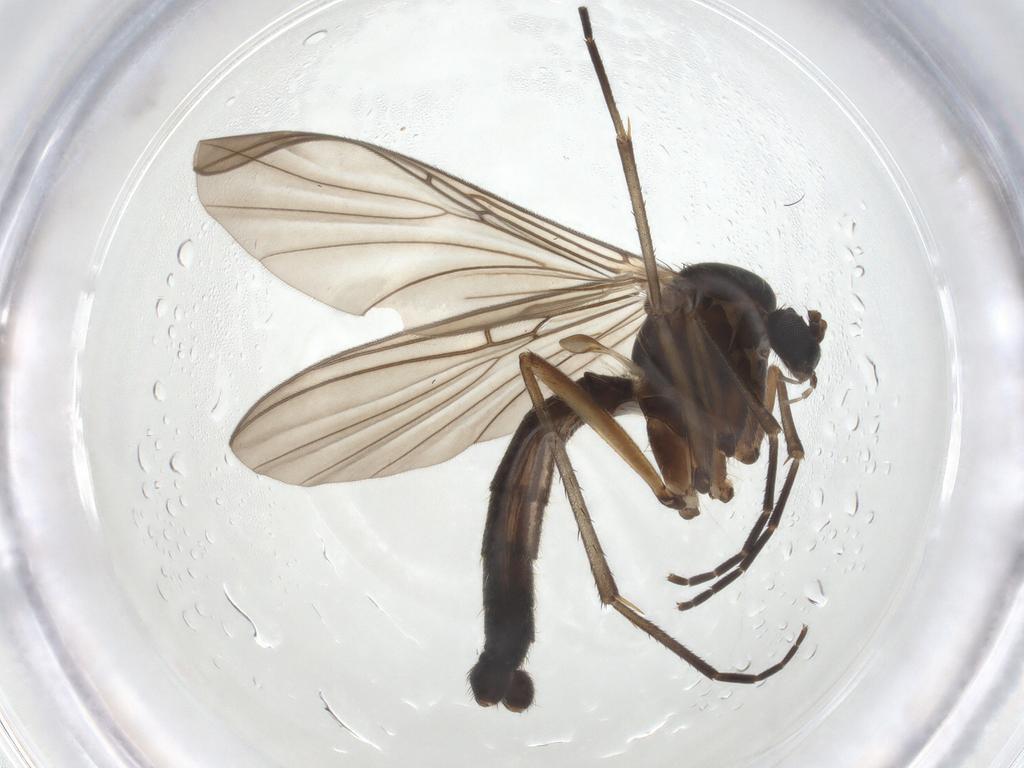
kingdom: Animalia
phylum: Arthropoda
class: Insecta
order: Diptera
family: Mycetophilidae
